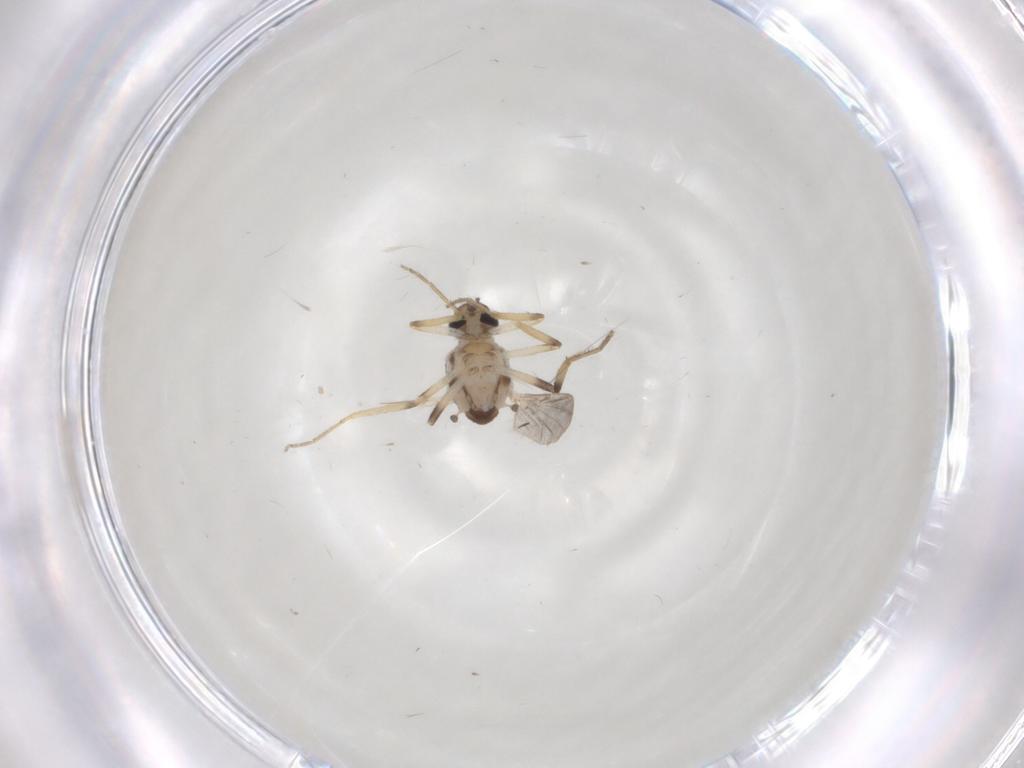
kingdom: Animalia
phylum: Arthropoda
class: Insecta
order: Diptera
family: Ceratopogonidae
